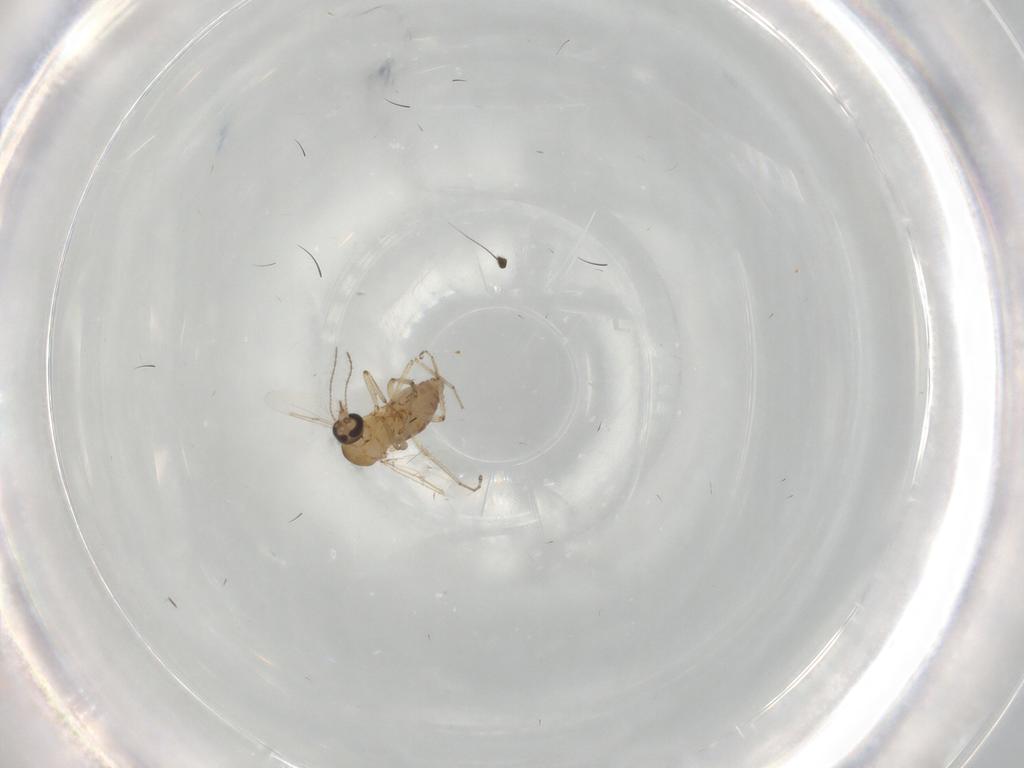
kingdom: Animalia
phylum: Arthropoda
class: Insecta
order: Diptera
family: Ceratopogonidae
